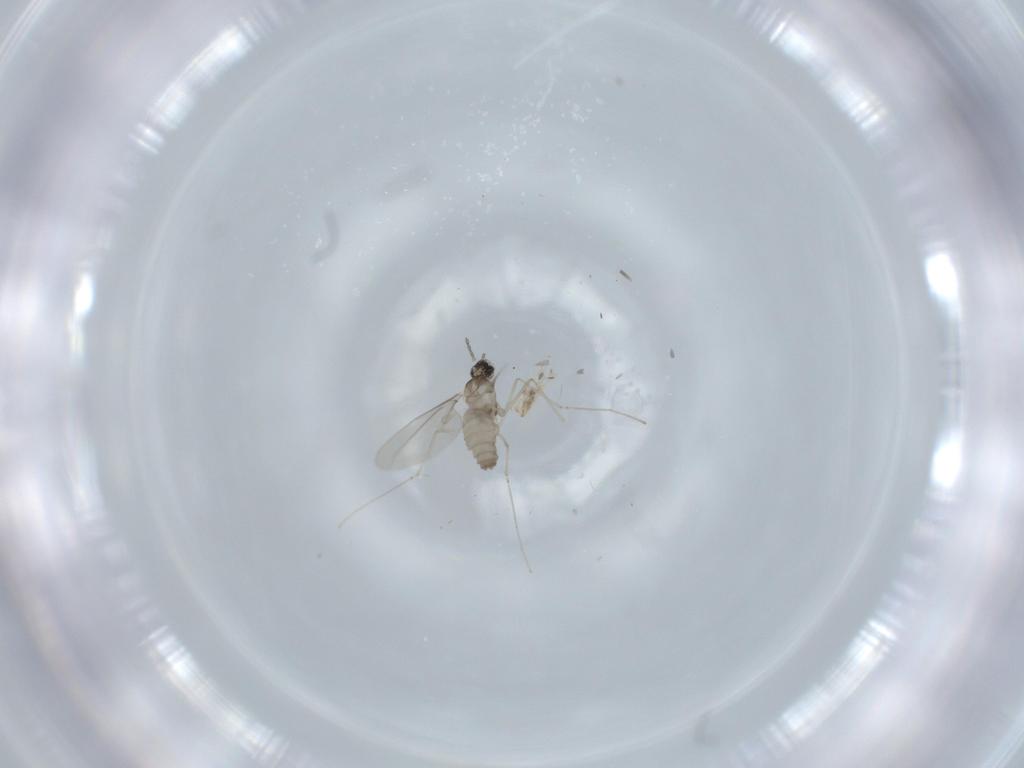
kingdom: Animalia
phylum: Arthropoda
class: Insecta
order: Diptera
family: Cecidomyiidae
